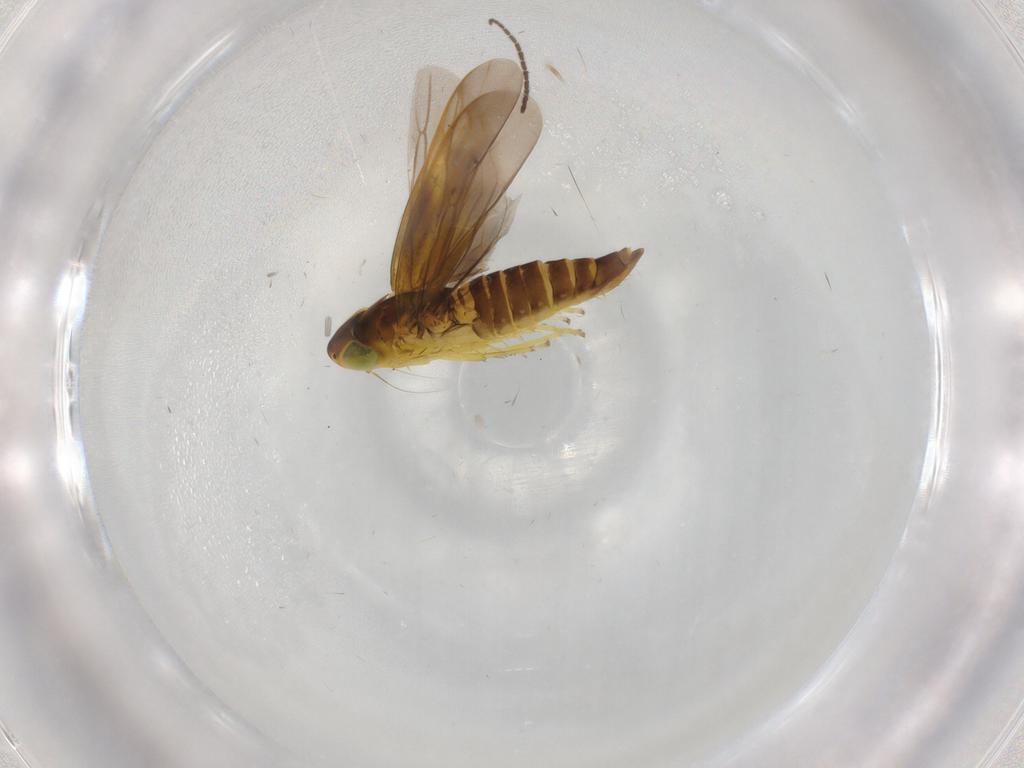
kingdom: Animalia
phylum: Arthropoda
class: Insecta
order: Hemiptera
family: Cicadellidae
